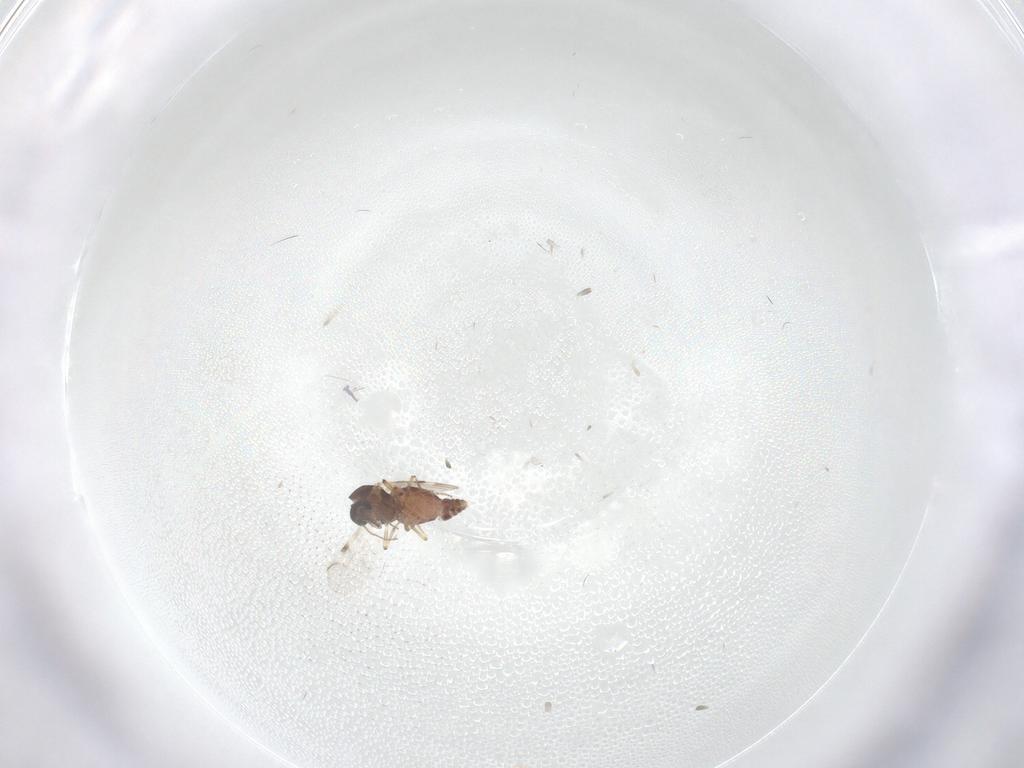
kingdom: Animalia
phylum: Arthropoda
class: Insecta
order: Diptera
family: Chironomidae
